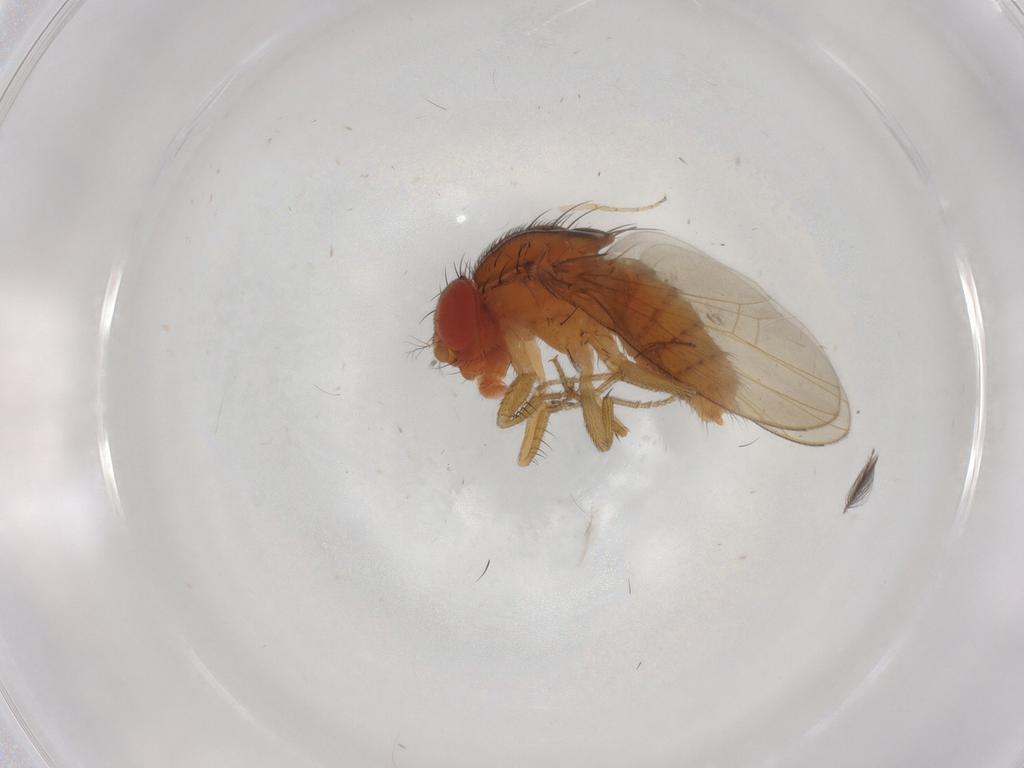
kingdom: Animalia
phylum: Arthropoda
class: Insecta
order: Diptera
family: Drosophilidae
